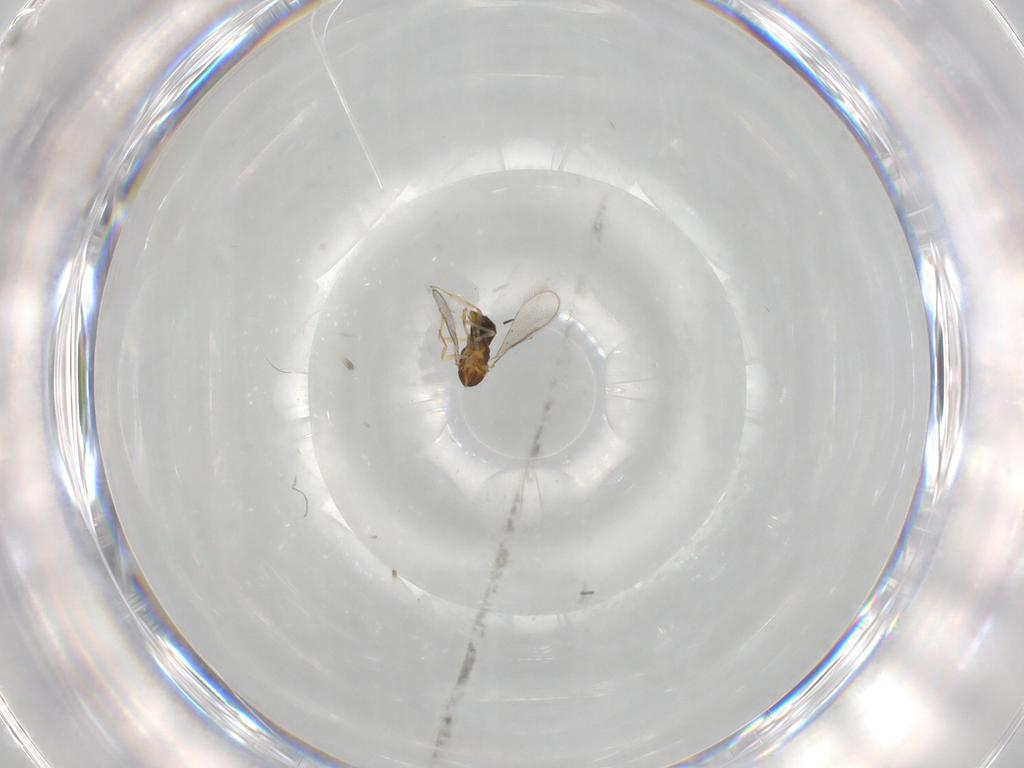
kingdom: Animalia
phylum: Arthropoda
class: Insecta
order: Hymenoptera
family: Aphelinidae
